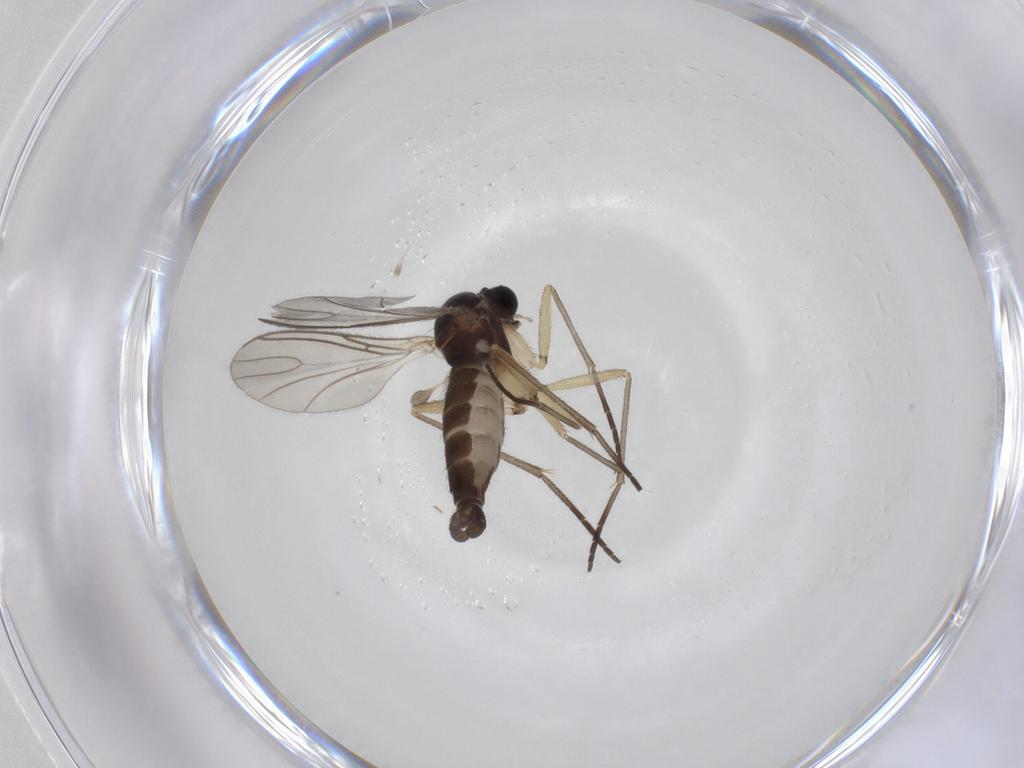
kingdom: Animalia
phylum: Arthropoda
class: Insecta
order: Diptera
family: Sciaridae
